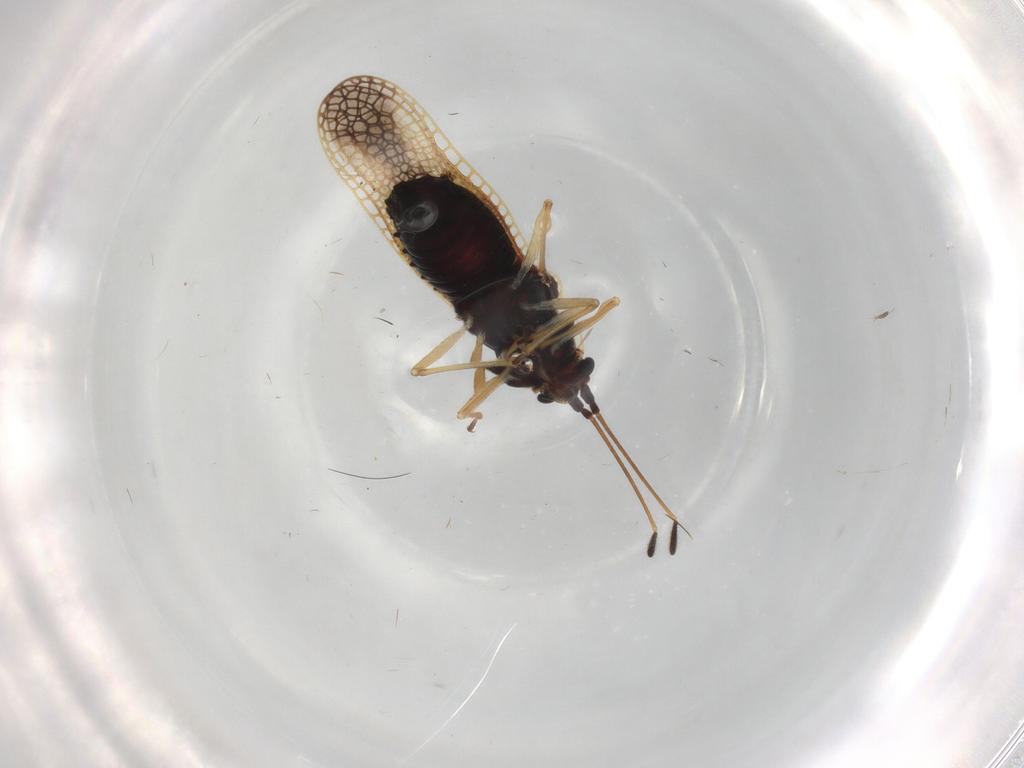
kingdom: Animalia
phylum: Arthropoda
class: Insecta
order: Hemiptera
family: Tingidae
